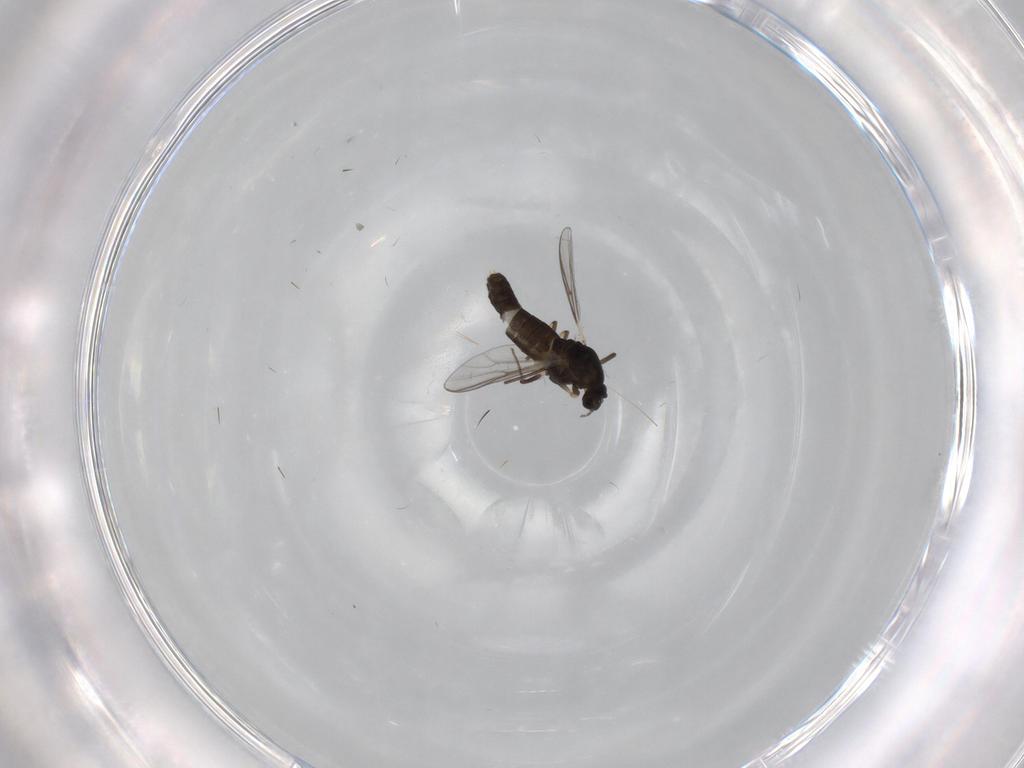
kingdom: Animalia
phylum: Arthropoda
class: Insecta
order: Diptera
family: Chironomidae
